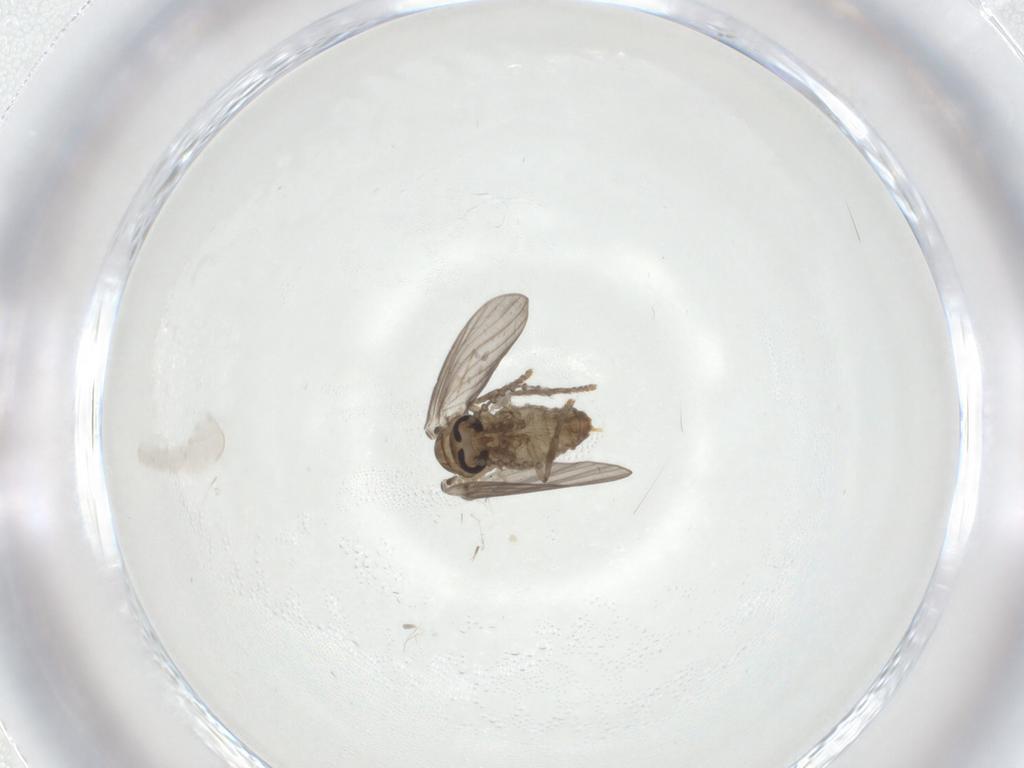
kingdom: Animalia
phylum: Arthropoda
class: Insecta
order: Diptera
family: Psychodidae
